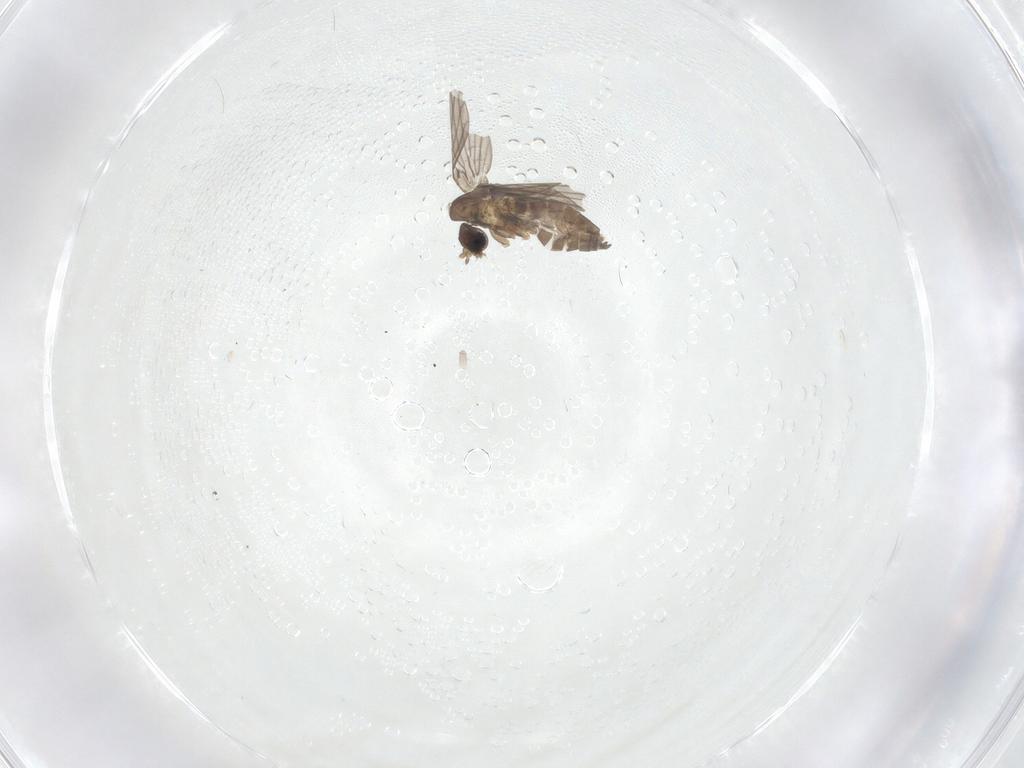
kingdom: Animalia
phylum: Arthropoda
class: Insecta
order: Diptera
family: Cecidomyiidae
